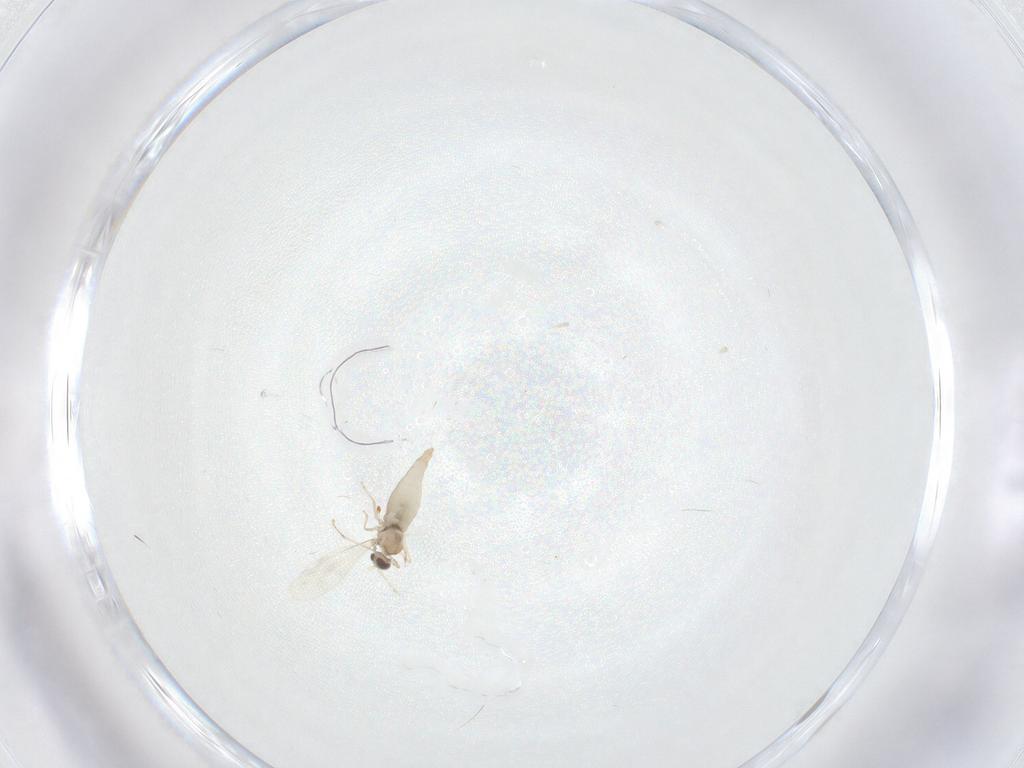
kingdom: Animalia
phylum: Arthropoda
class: Insecta
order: Diptera
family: Cecidomyiidae
